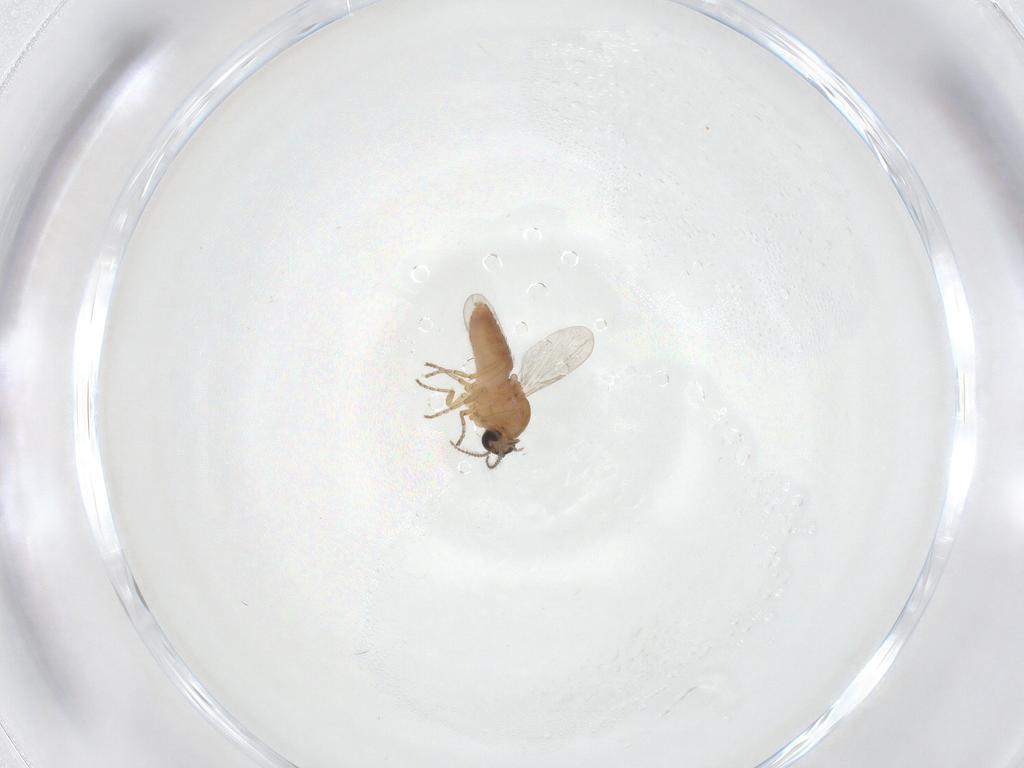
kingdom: Animalia
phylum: Arthropoda
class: Insecta
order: Diptera
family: Ceratopogonidae
